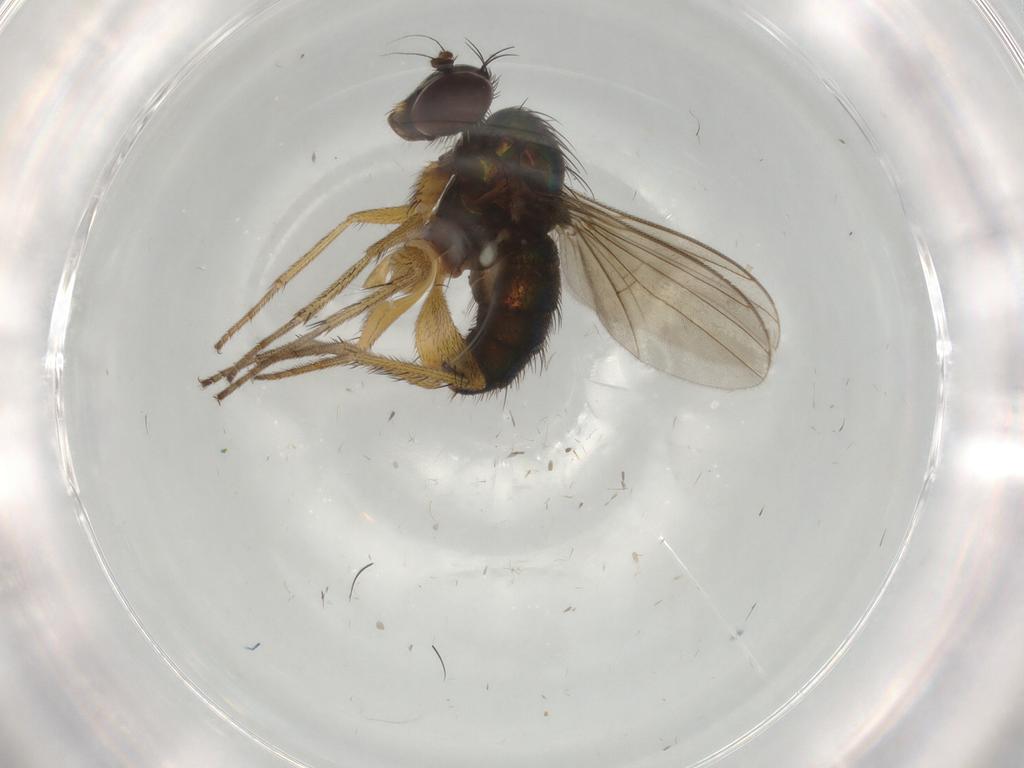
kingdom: Animalia
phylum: Arthropoda
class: Insecta
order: Diptera
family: Dolichopodidae
